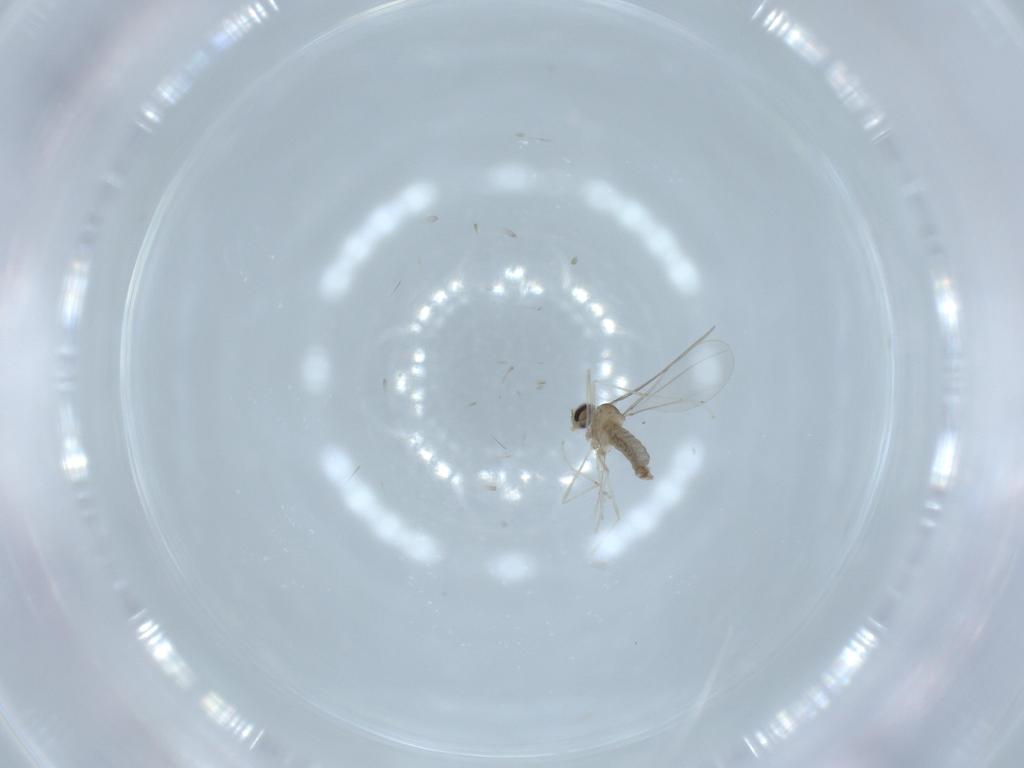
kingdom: Animalia
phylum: Arthropoda
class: Insecta
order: Diptera
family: Cecidomyiidae
